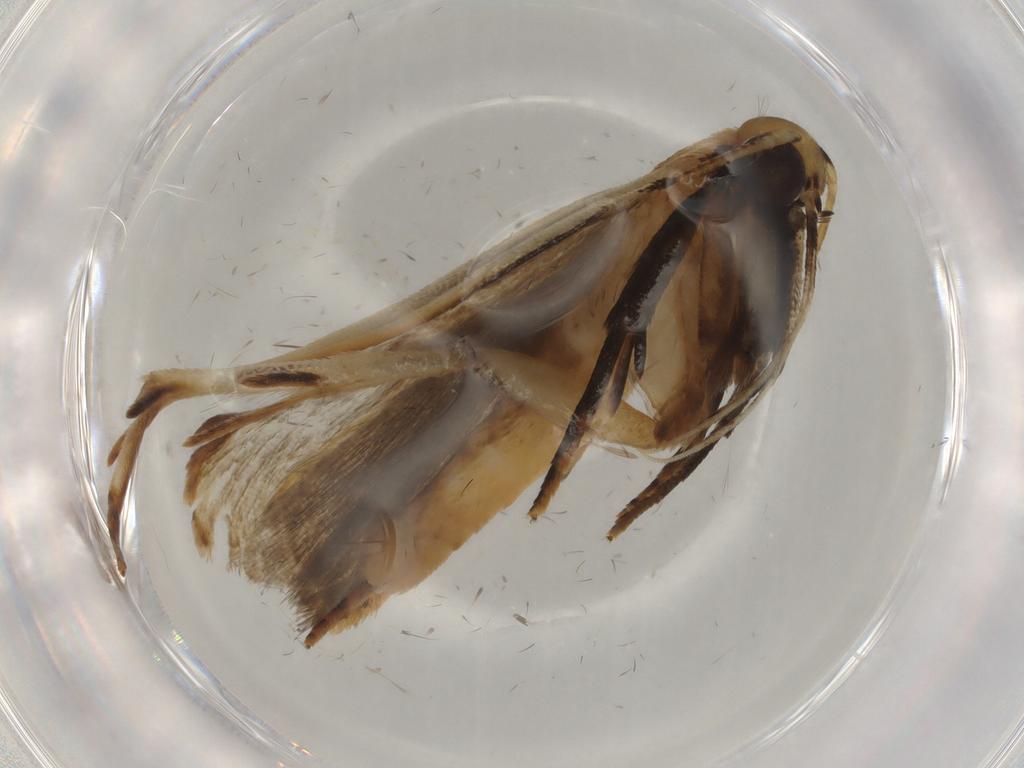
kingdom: Animalia
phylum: Arthropoda
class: Insecta
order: Lepidoptera
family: Gelechiidae
